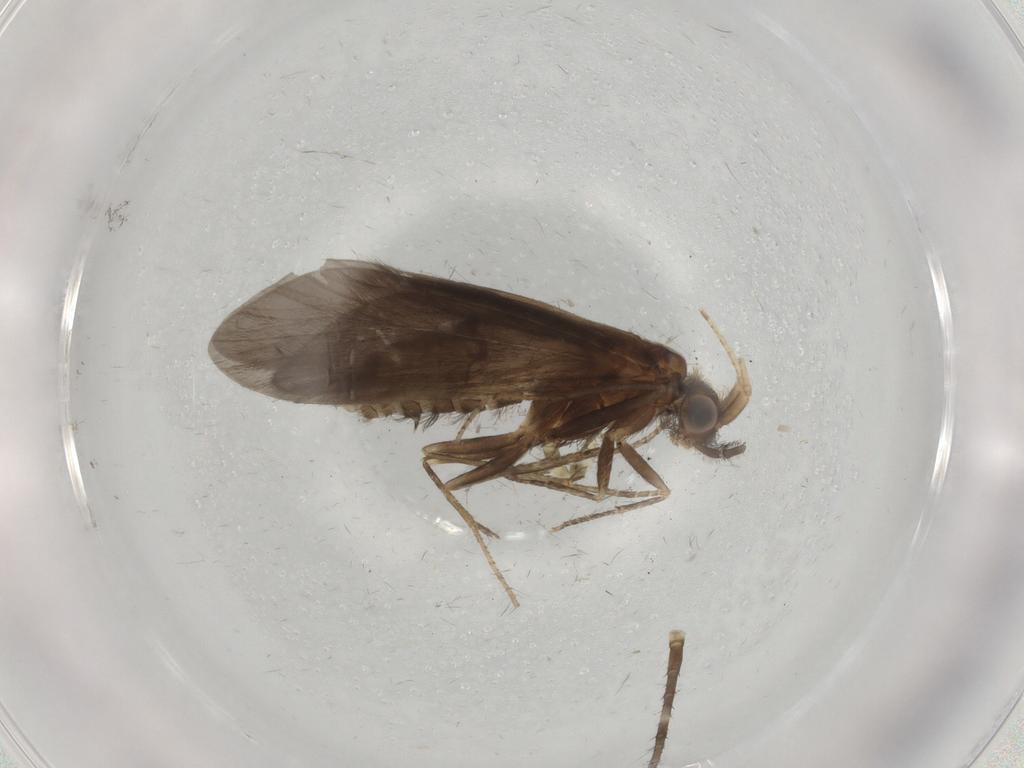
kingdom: Animalia
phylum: Arthropoda
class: Insecta
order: Trichoptera
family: Helicopsychidae
